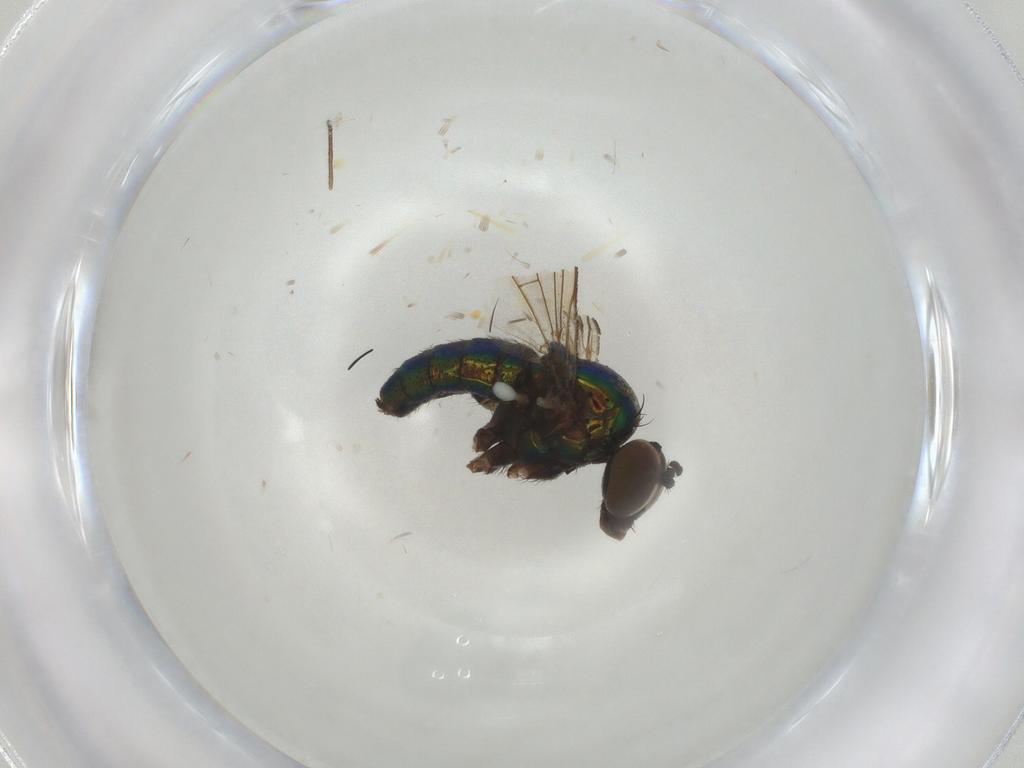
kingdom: Animalia
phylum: Arthropoda
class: Insecta
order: Diptera
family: Dolichopodidae
